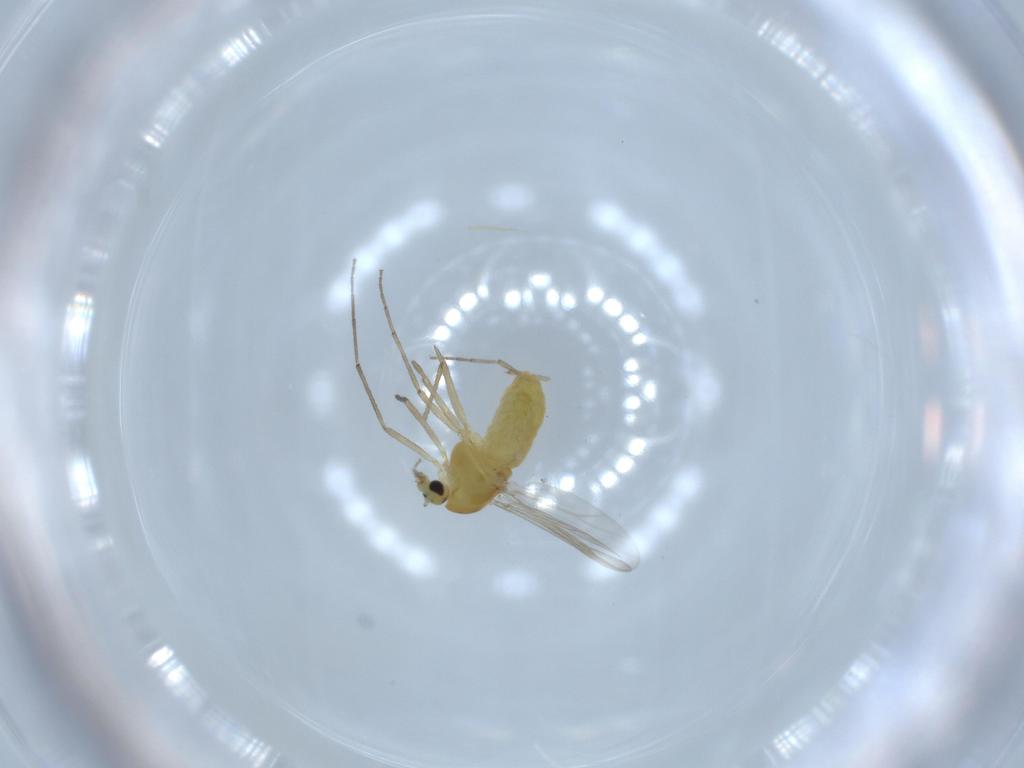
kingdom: Animalia
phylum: Arthropoda
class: Insecta
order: Diptera
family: Chironomidae
